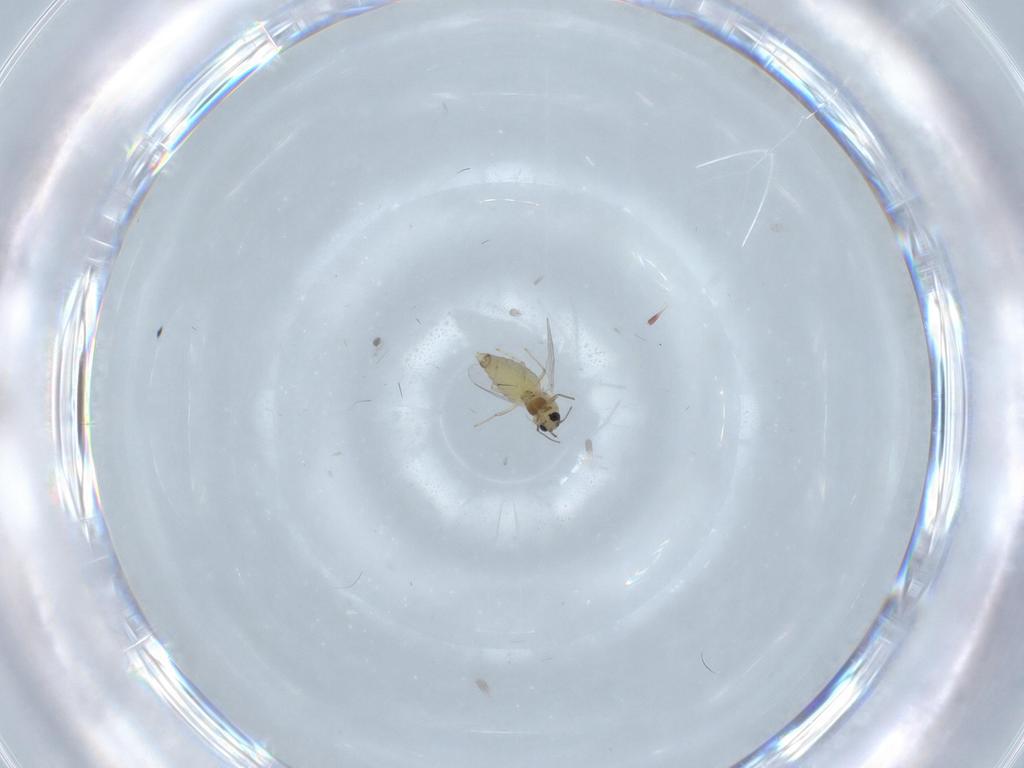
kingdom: Animalia
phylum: Arthropoda
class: Insecta
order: Diptera
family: Chironomidae
